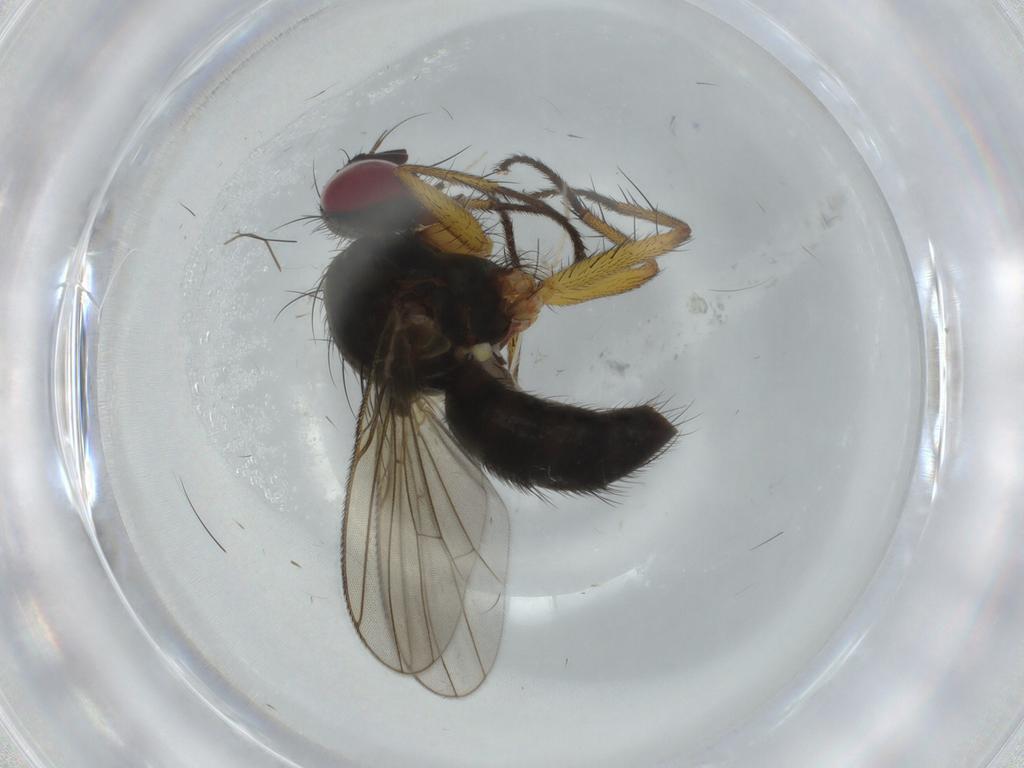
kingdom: Animalia
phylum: Arthropoda
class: Insecta
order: Diptera
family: Muscidae
